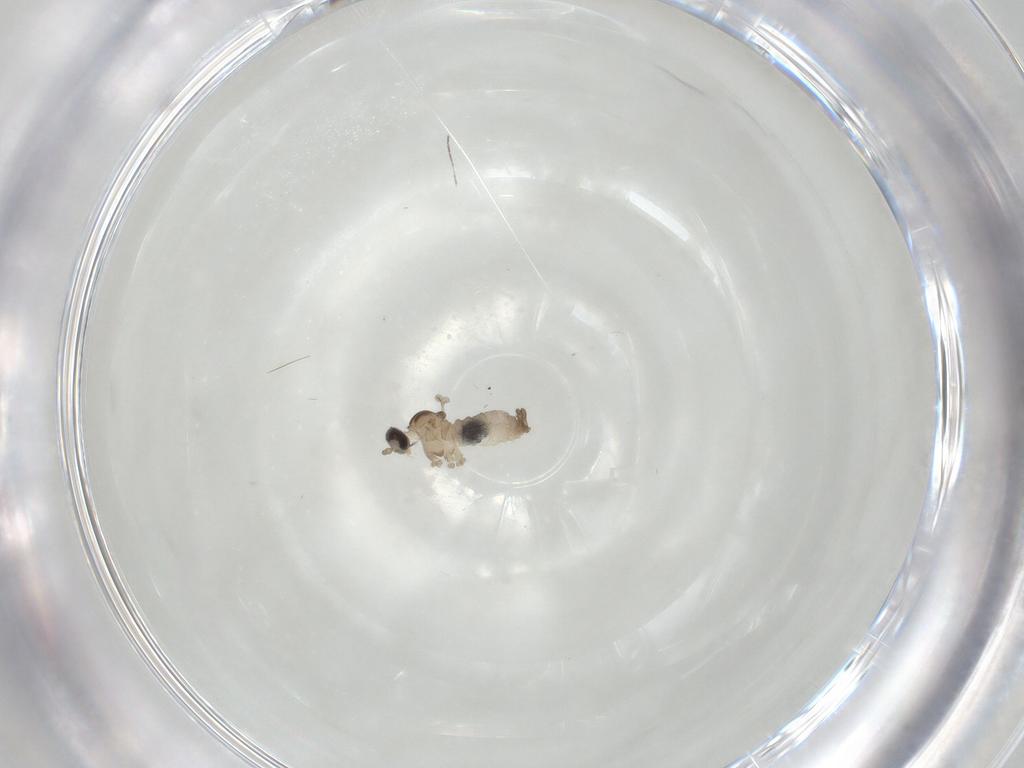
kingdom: Animalia
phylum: Arthropoda
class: Insecta
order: Diptera
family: Cecidomyiidae
